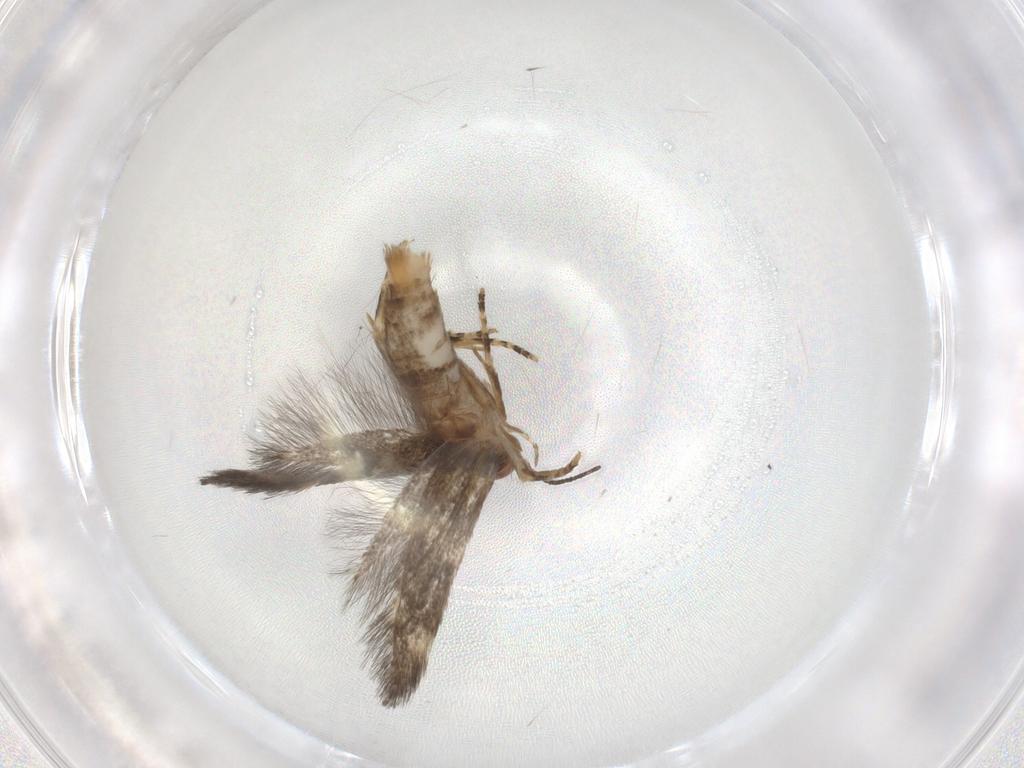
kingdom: Animalia
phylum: Arthropoda
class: Insecta
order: Lepidoptera
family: Elachistidae
